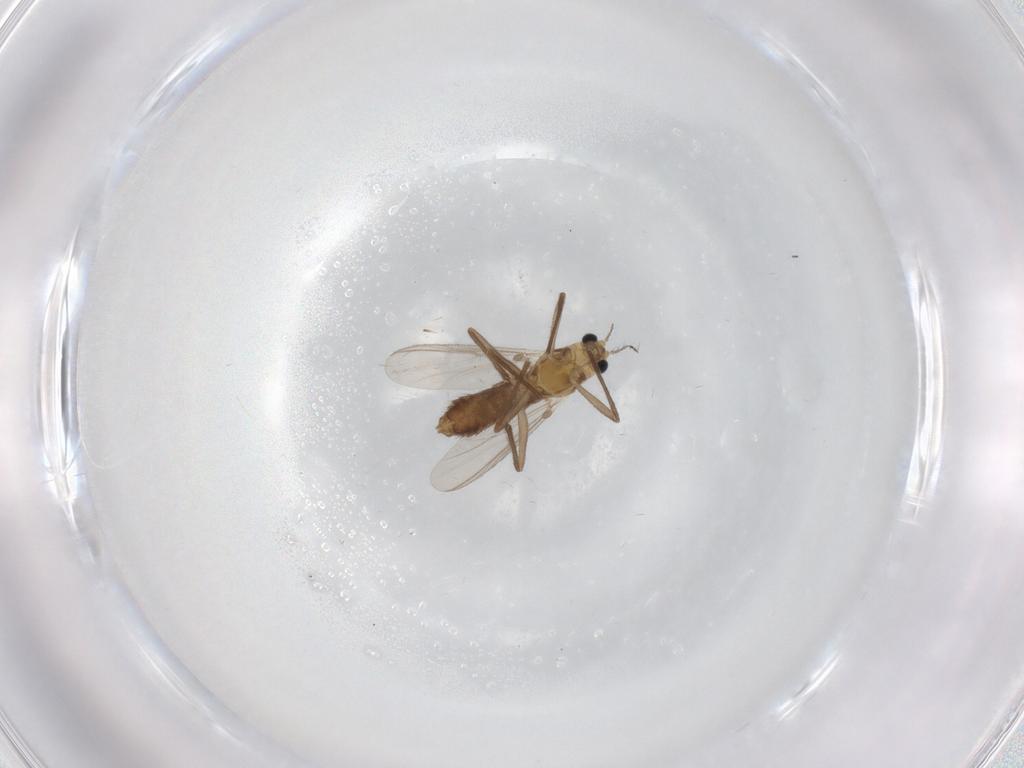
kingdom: Animalia
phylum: Arthropoda
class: Insecta
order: Diptera
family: Chironomidae
